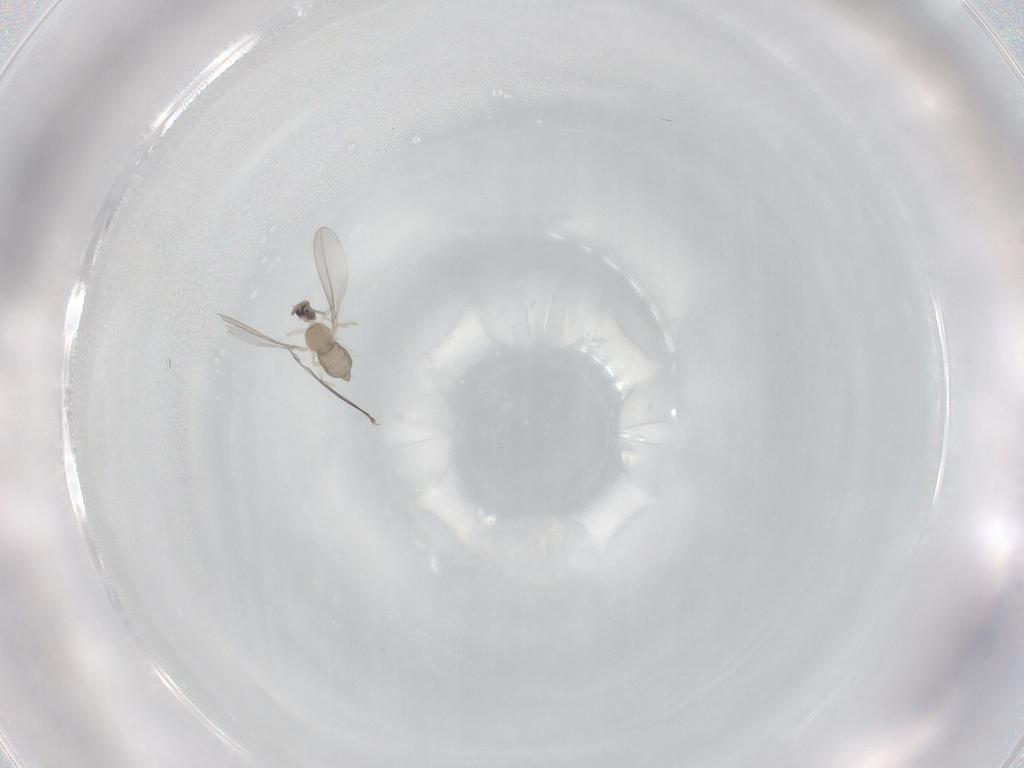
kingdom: Animalia
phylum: Arthropoda
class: Insecta
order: Diptera
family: Cecidomyiidae
